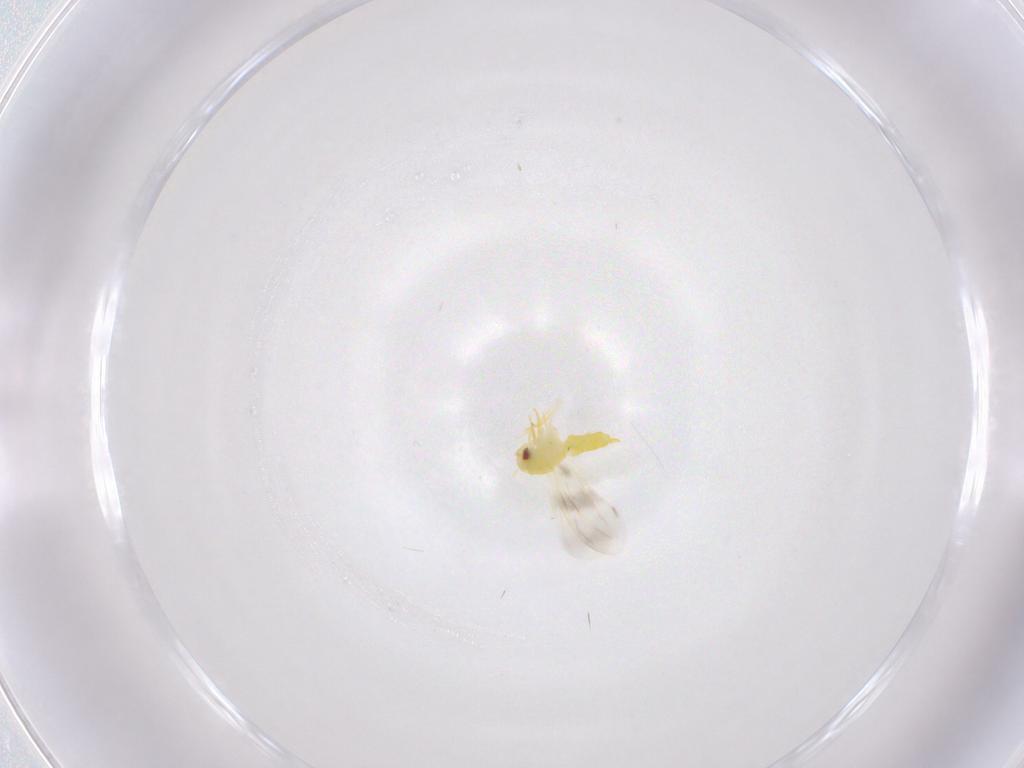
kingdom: Animalia
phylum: Arthropoda
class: Insecta
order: Hemiptera
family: Aleyrodidae
